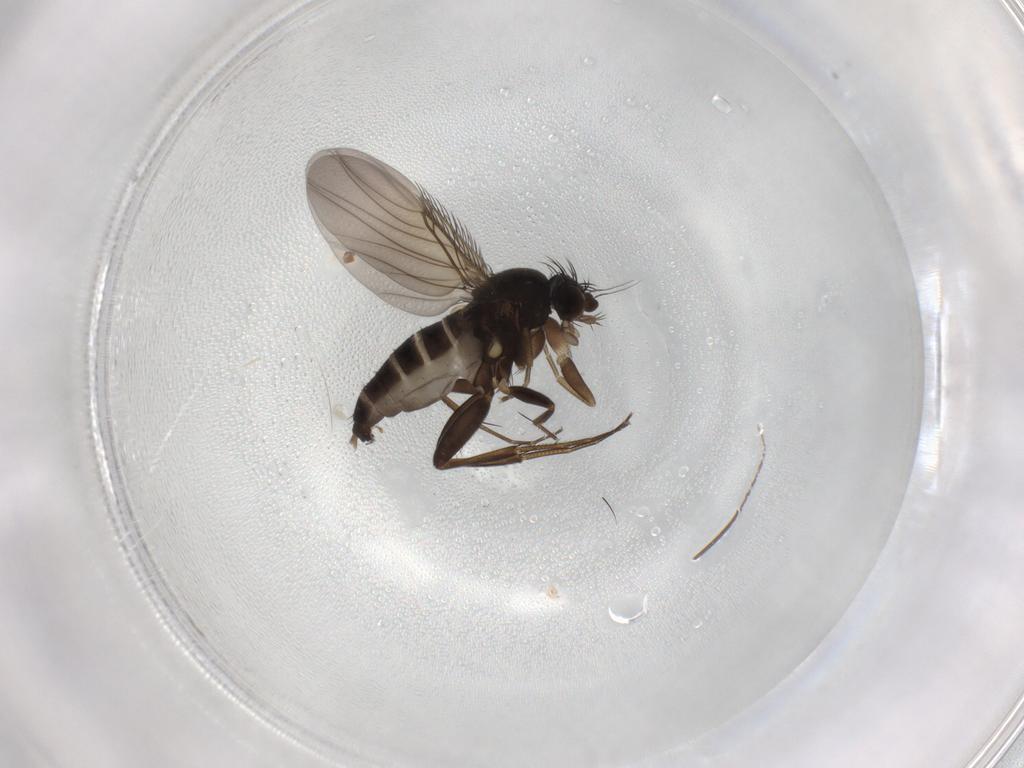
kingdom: Animalia
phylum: Arthropoda
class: Insecta
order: Diptera
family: Phoridae
